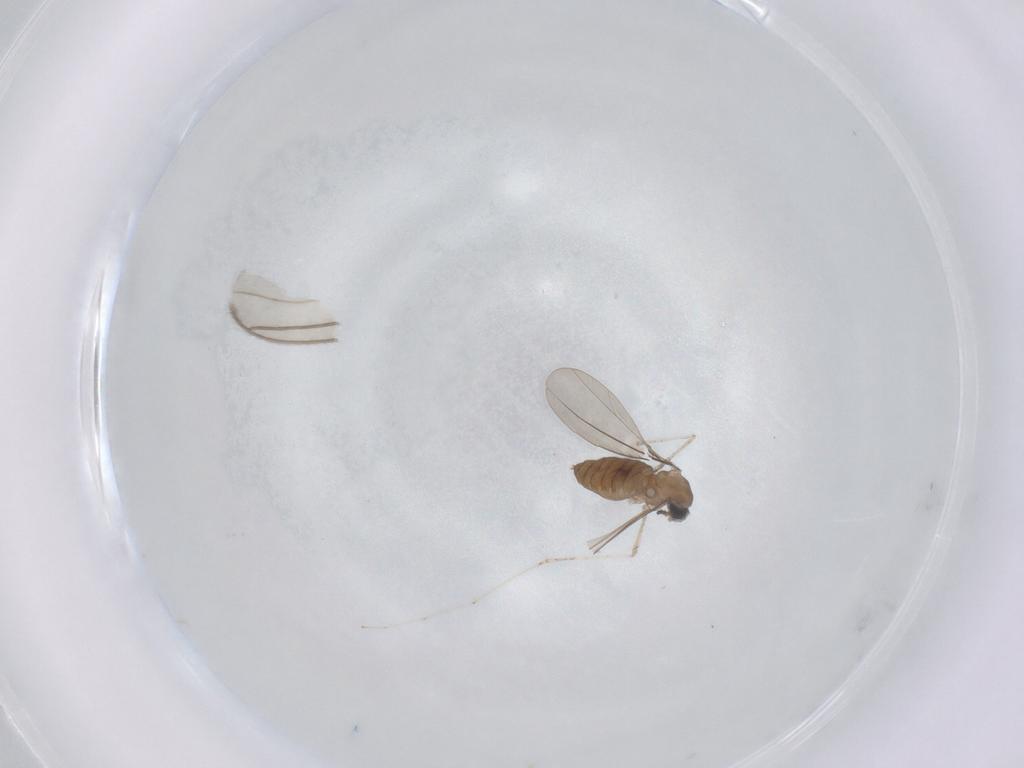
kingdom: Animalia
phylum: Arthropoda
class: Insecta
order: Diptera
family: Cecidomyiidae
